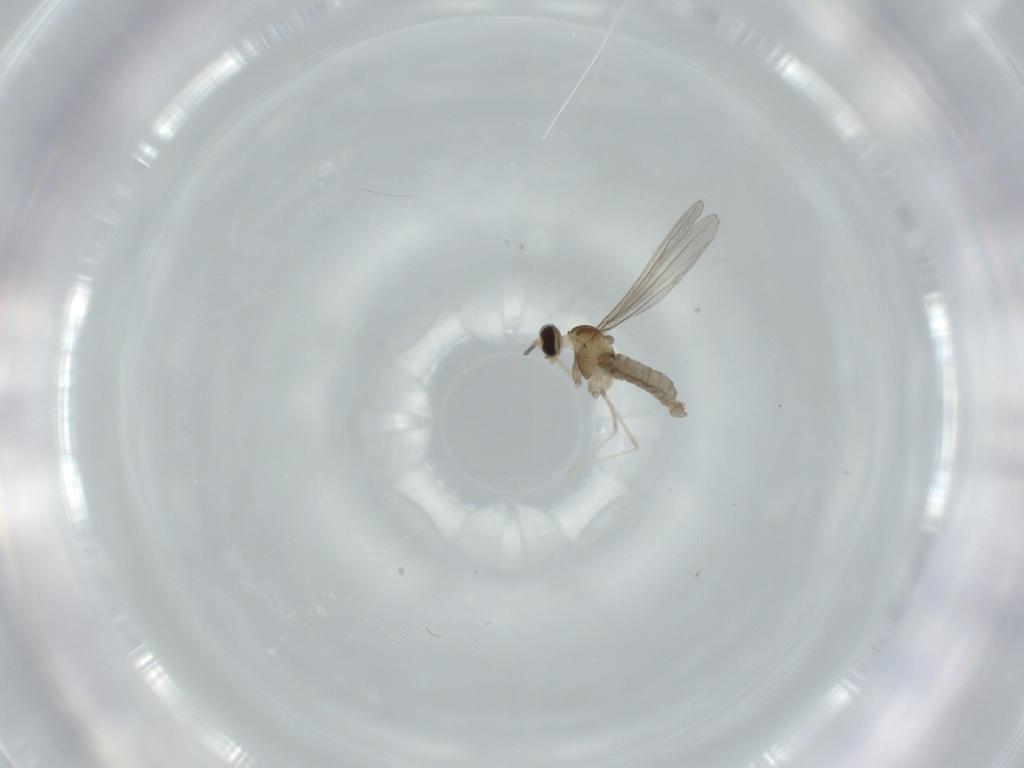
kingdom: Animalia
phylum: Arthropoda
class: Insecta
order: Diptera
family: Cecidomyiidae
